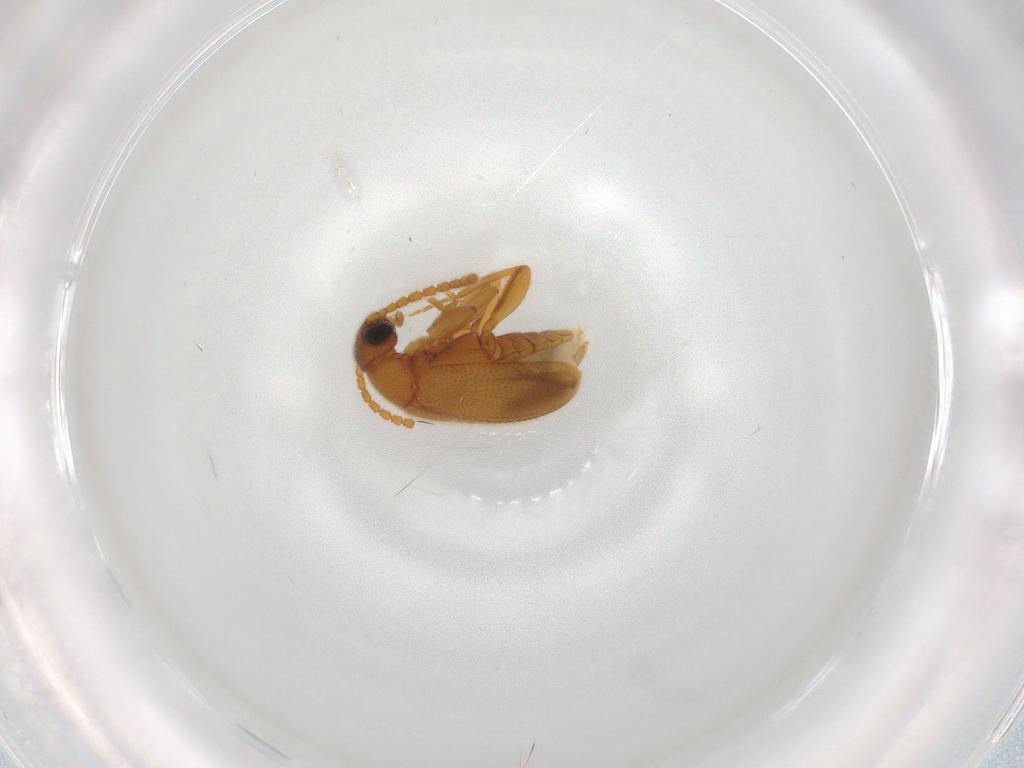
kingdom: Animalia
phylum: Arthropoda
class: Insecta
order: Coleoptera
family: Aderidae
